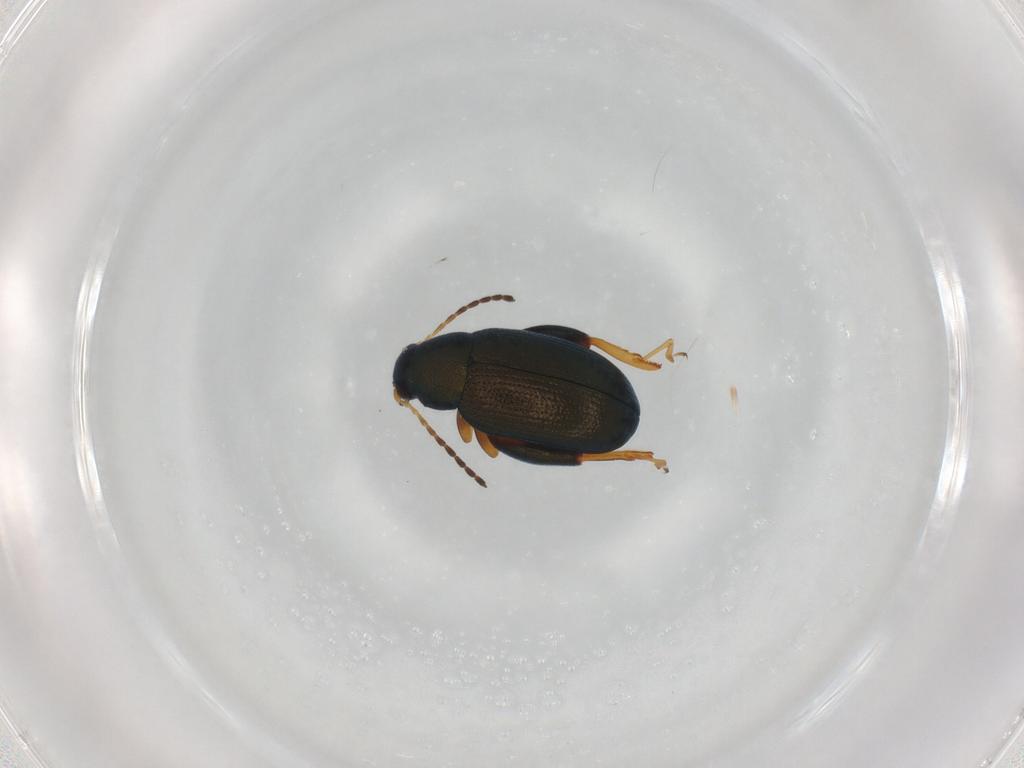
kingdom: Animalia
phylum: Arthropoda
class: Insecta
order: Coleoptera
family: Chrysomelidae
